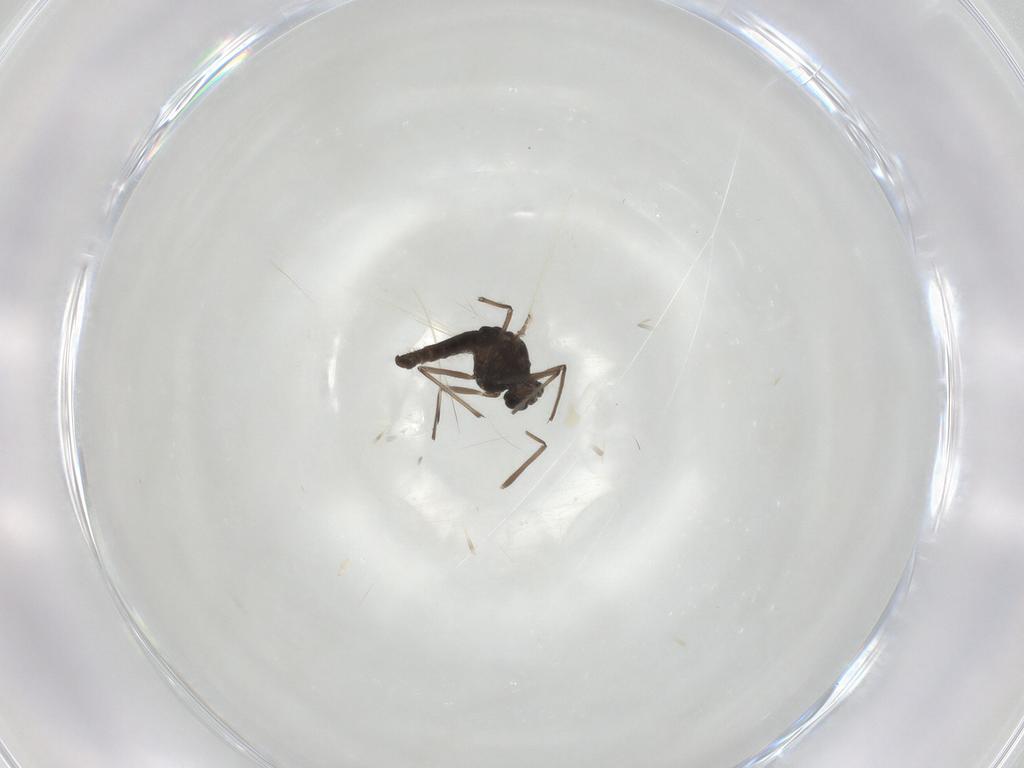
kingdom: Animalia
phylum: Arthropoda
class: Insecta
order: Diptera
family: Chironomidae
